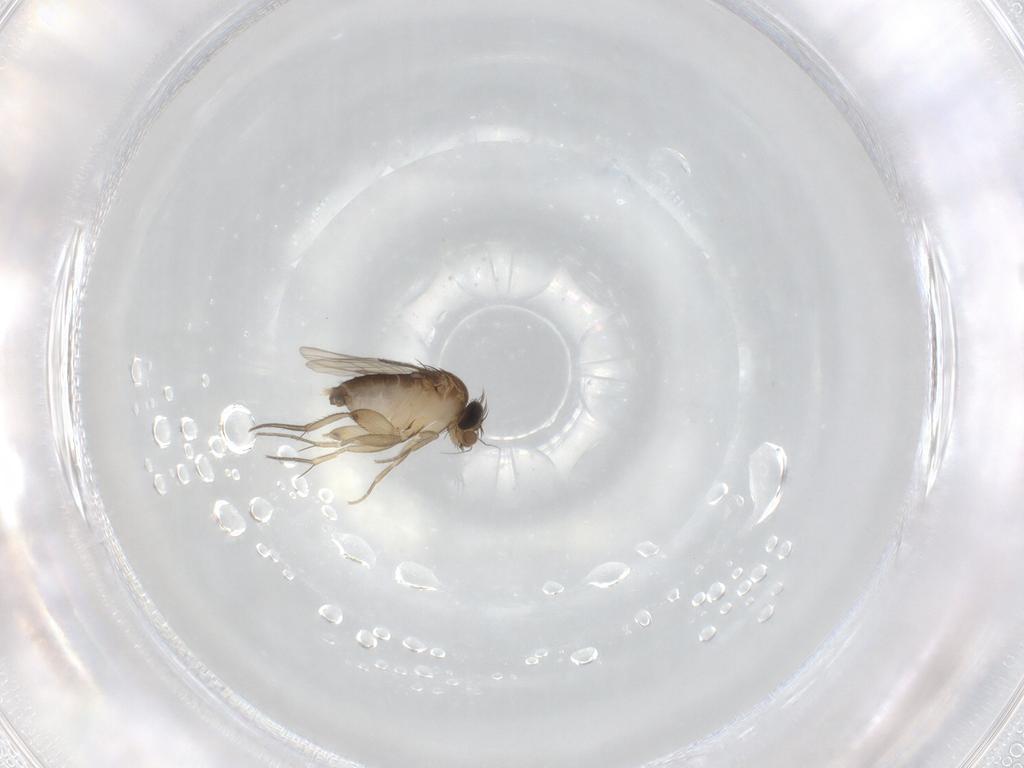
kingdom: Animalia
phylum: Arthropoda
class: Insecta
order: Diptera
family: Phoridae
